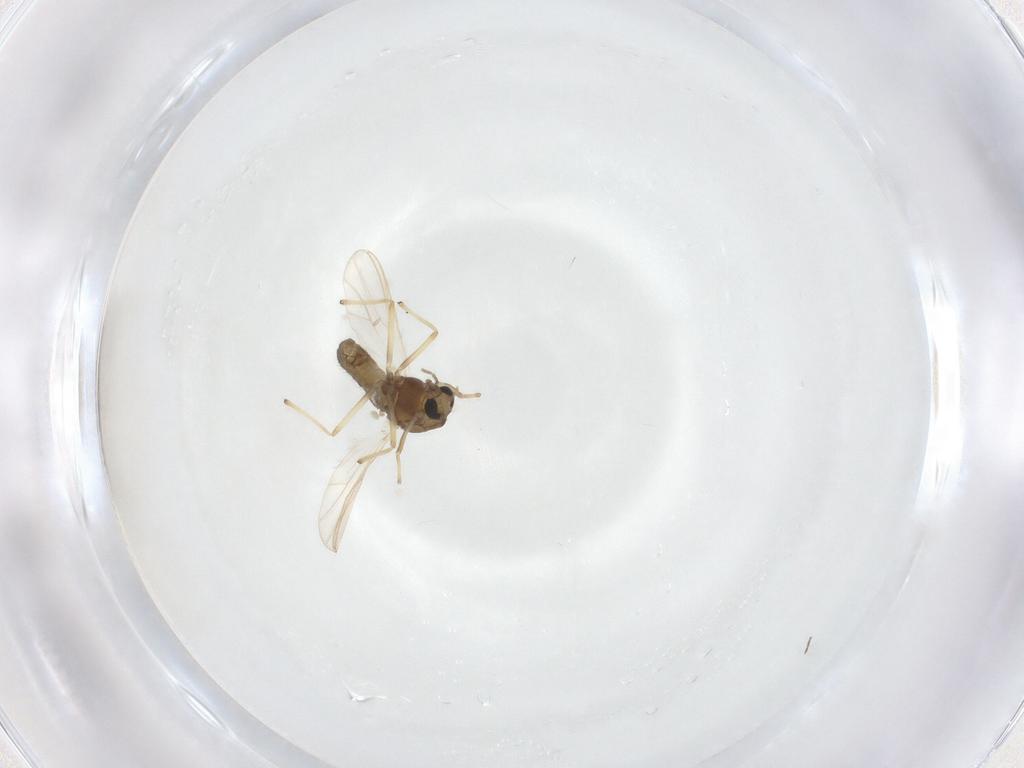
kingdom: Animalia
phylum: Arthropoda
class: Insecta
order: Diptera
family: Chironomidae
